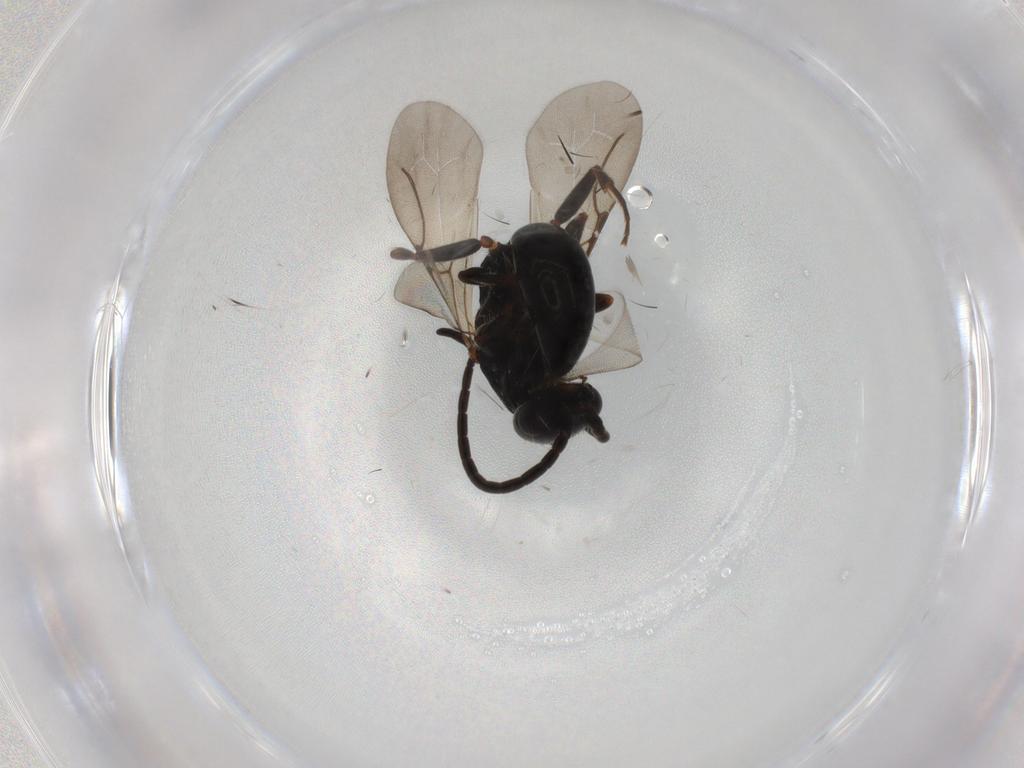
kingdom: Animalia
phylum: Arthropoda
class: Insecta
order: Hymenoptera
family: Bethylidae
